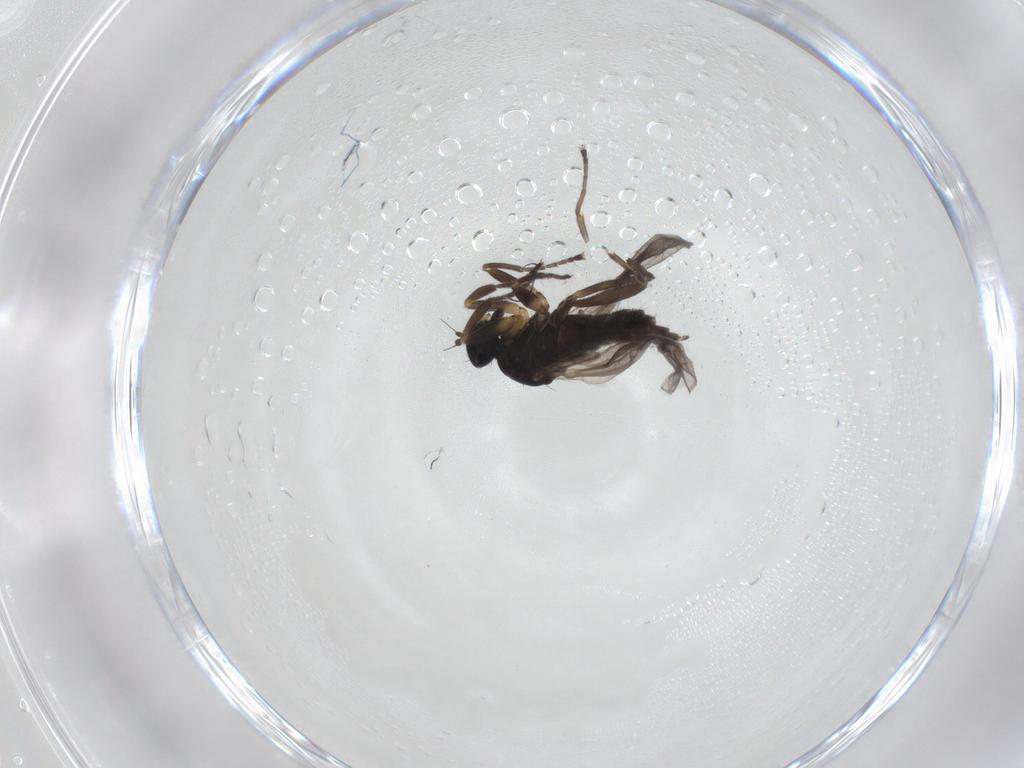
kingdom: Animalia
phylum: Arthropoda
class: Insecta
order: Diptera
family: Hybotidae
